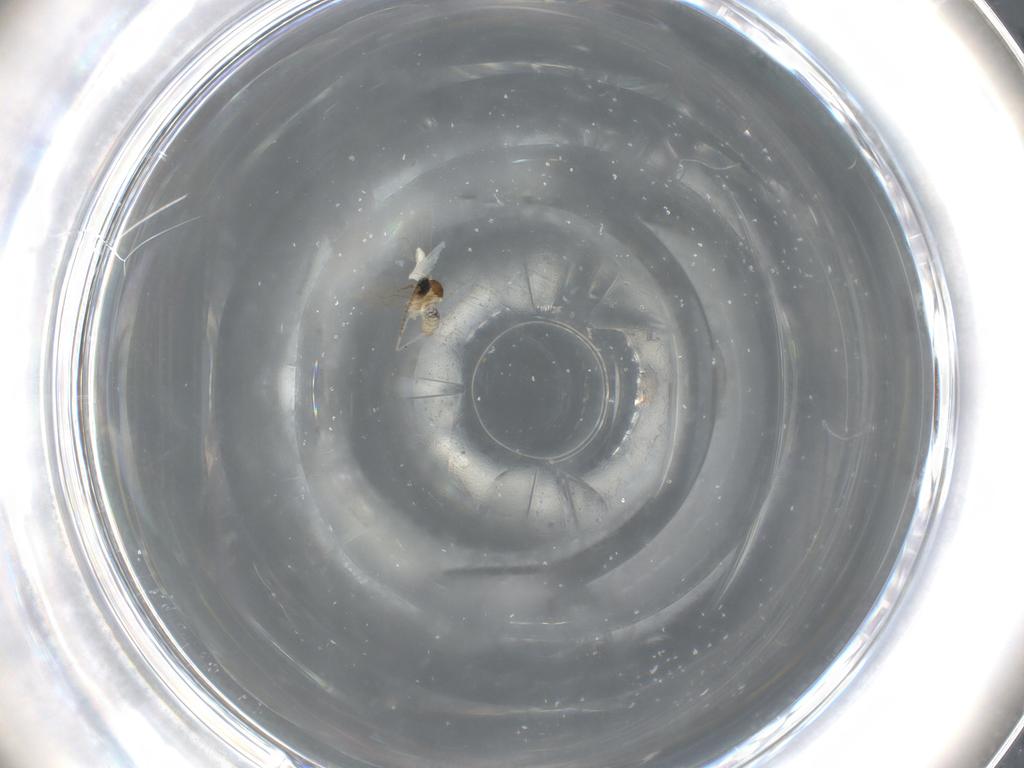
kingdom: Animalia
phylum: Arthropoda
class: Insecta
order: Diptera
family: Cecidomyiidae
